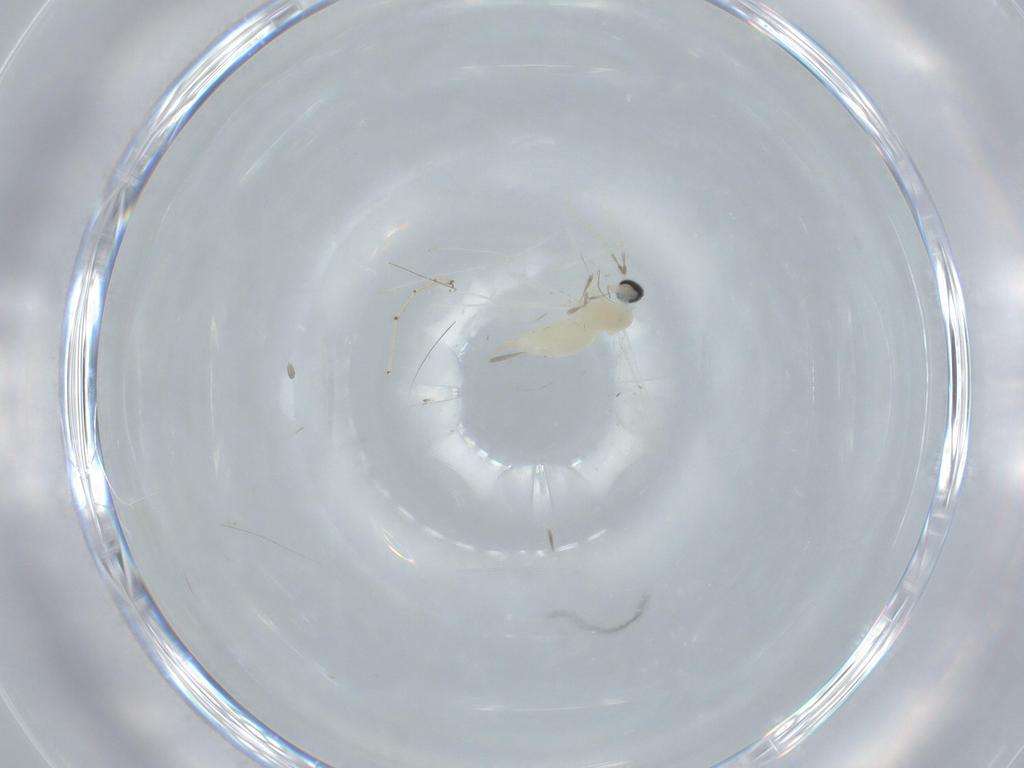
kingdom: Animalia
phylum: Arthropoda
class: Insecta
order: Diptera
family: Cecidomyiidae
